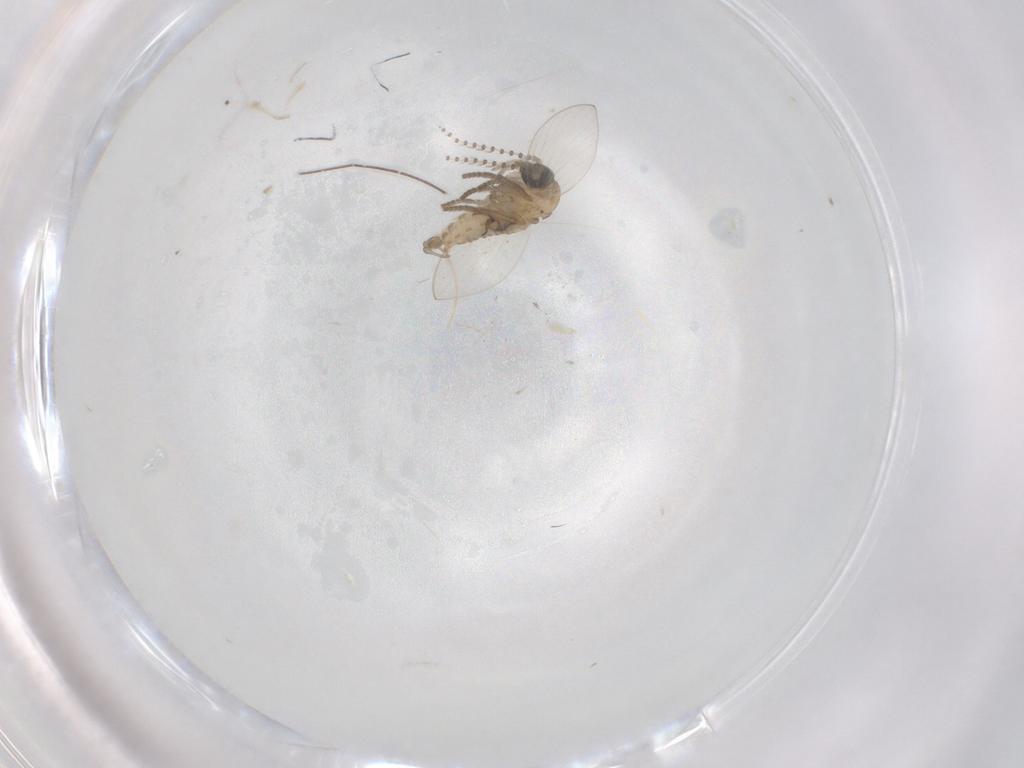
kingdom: Animalia
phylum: Arthropoda
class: Insecta
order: Diptera
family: Psychodidae
